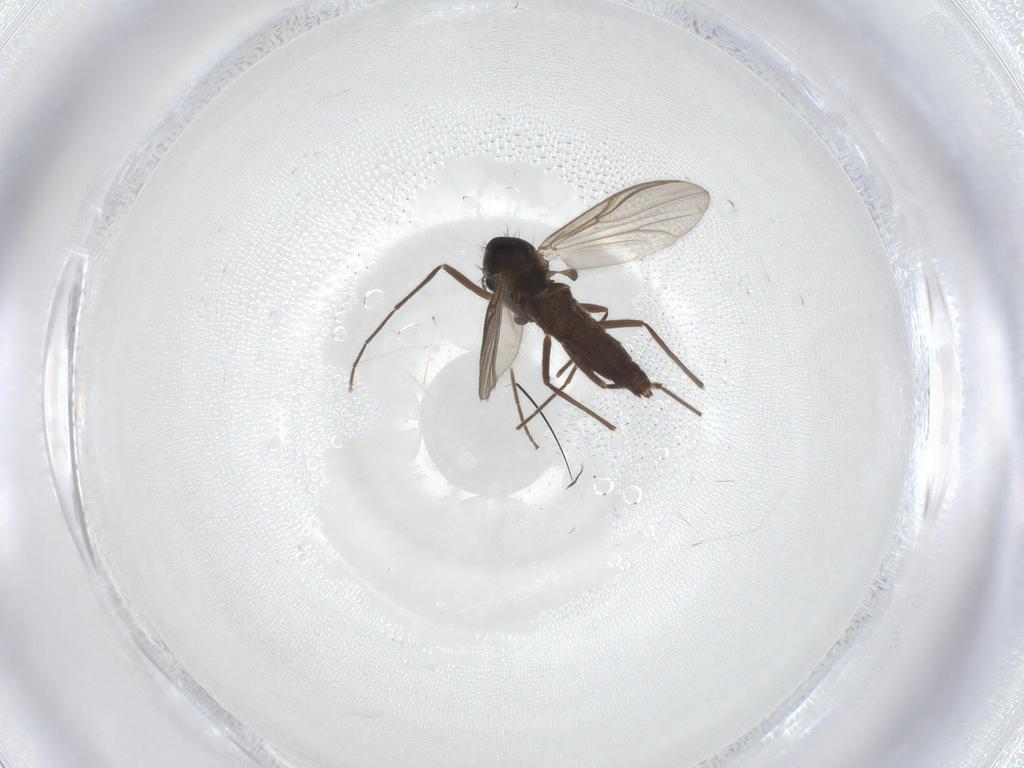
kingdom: Animalia
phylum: Arthropoda
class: Insecta
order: Diptera
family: Chironomidae
